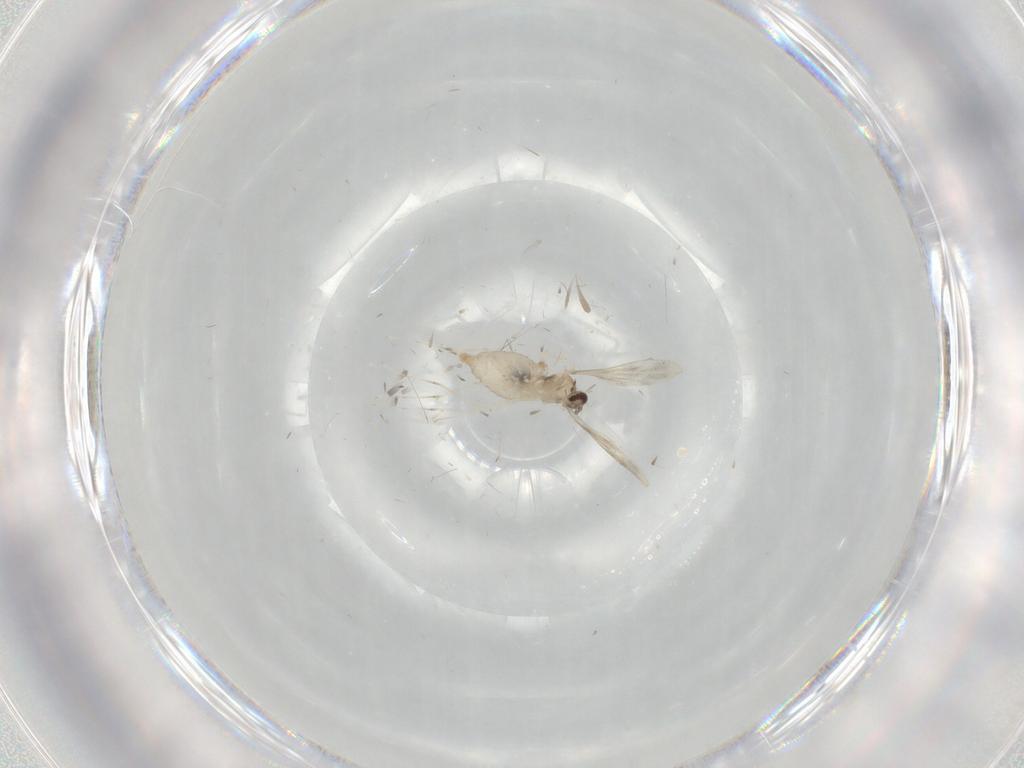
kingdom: Animalia
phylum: Arthropoda
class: Insecta
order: Diptera
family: Cecidomyiidae
